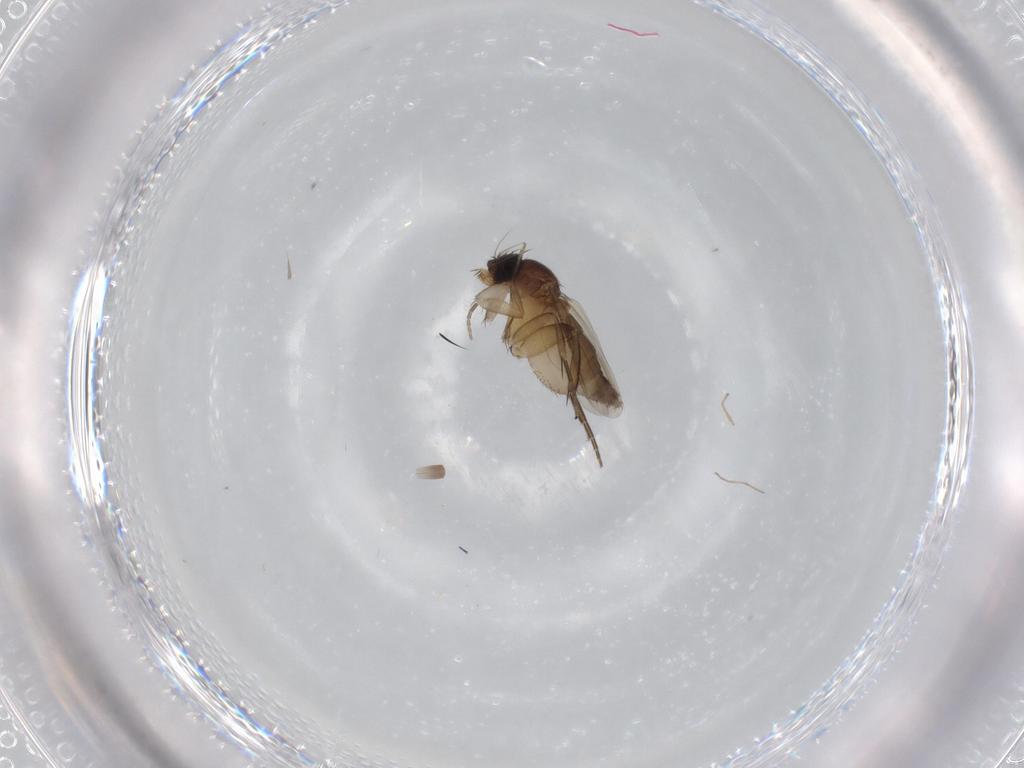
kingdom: Animalia
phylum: Arthropoda
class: Insecta
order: Diptera
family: Phoridae
